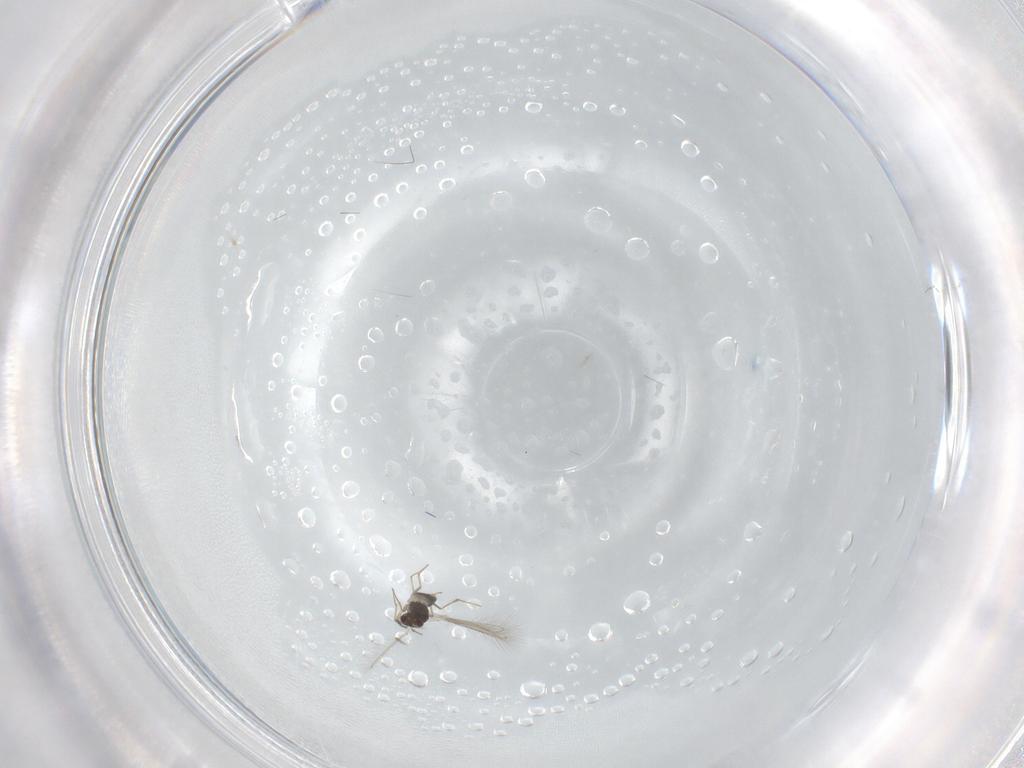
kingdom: Animalia
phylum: Arthropoda
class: Insecta
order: Hymenoptera
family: Mymaridae
